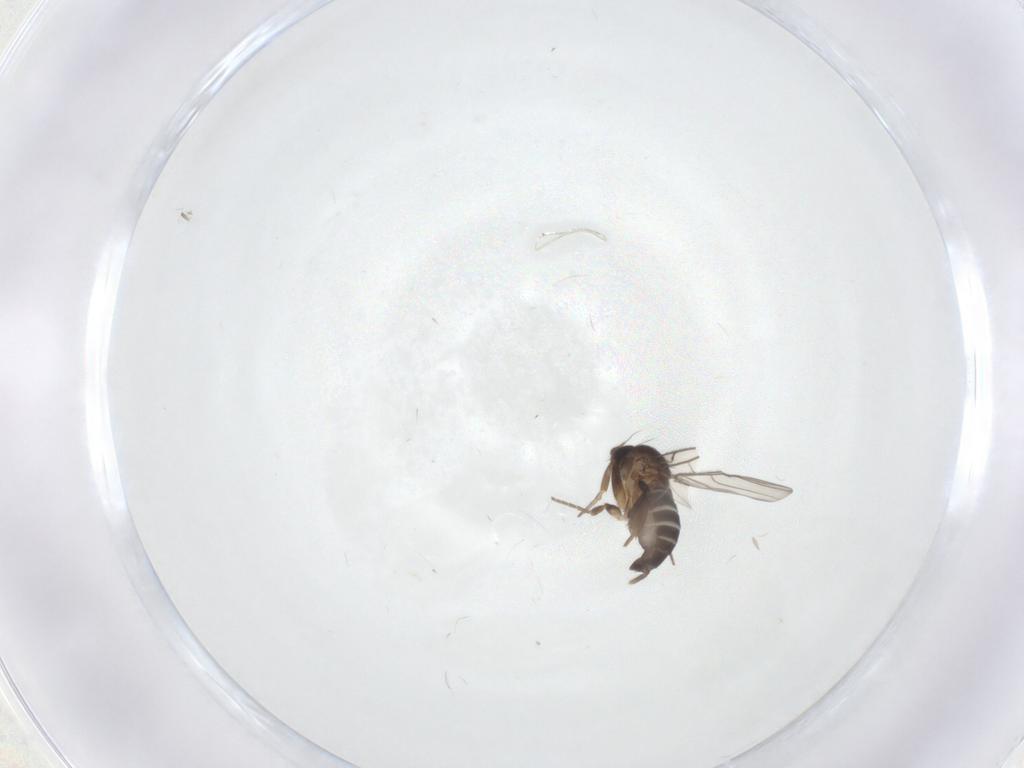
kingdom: Animalia
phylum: Arthropoda
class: Insecta
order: Diptera
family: Phoridae
